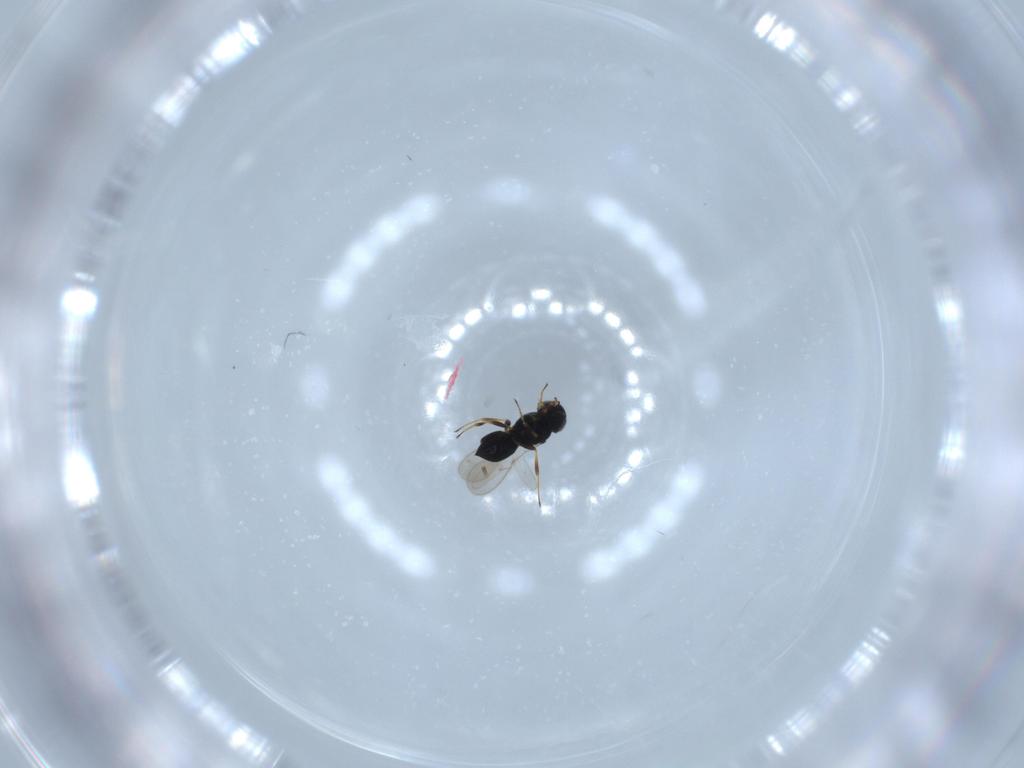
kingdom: Animalia
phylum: Arthropoda
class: Insecta
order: Hymenoptera
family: Scelionidae
